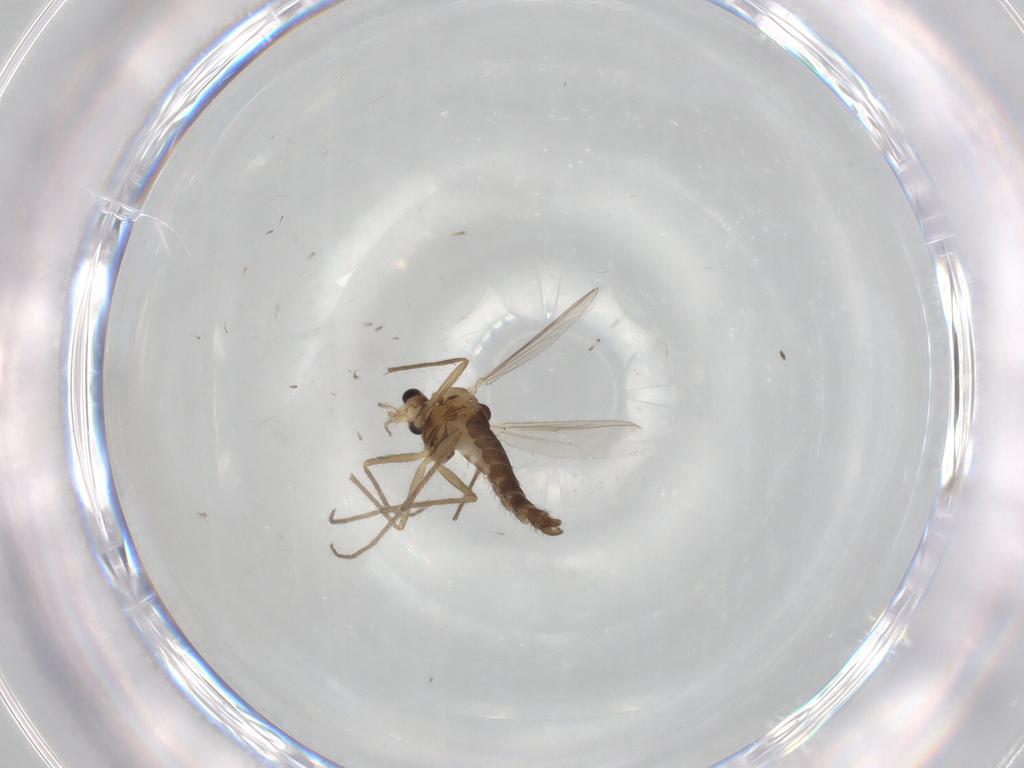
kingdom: Animalia
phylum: Arthropoda
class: Insecta
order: Diptera
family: Chironomidae
